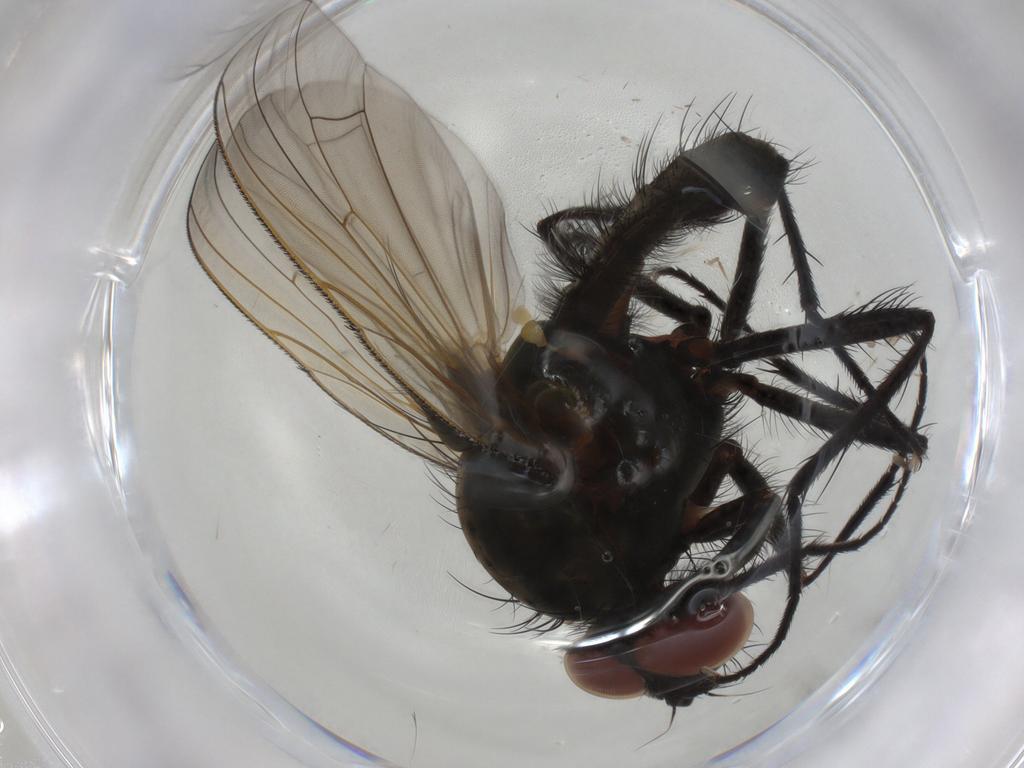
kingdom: Animalia
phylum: Arthropoda
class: Insecta
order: Diptera
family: Anthomyiidae
